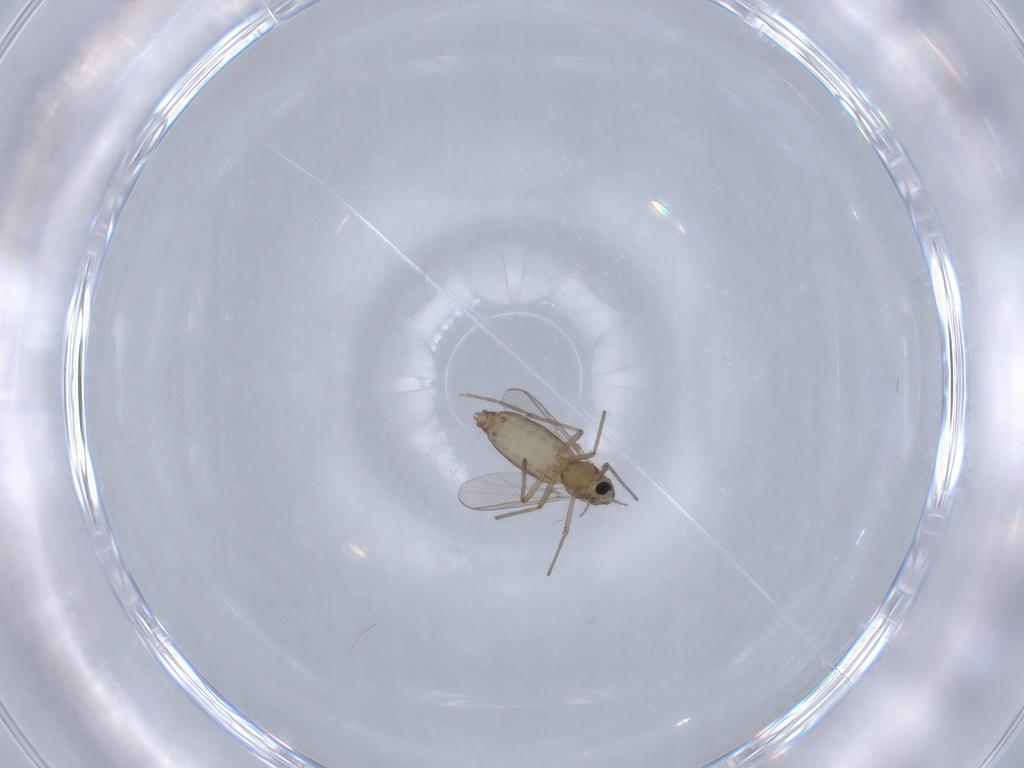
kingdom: Animalia
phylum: Arthropoda
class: Insecta
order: Diptera
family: Chironomidae
